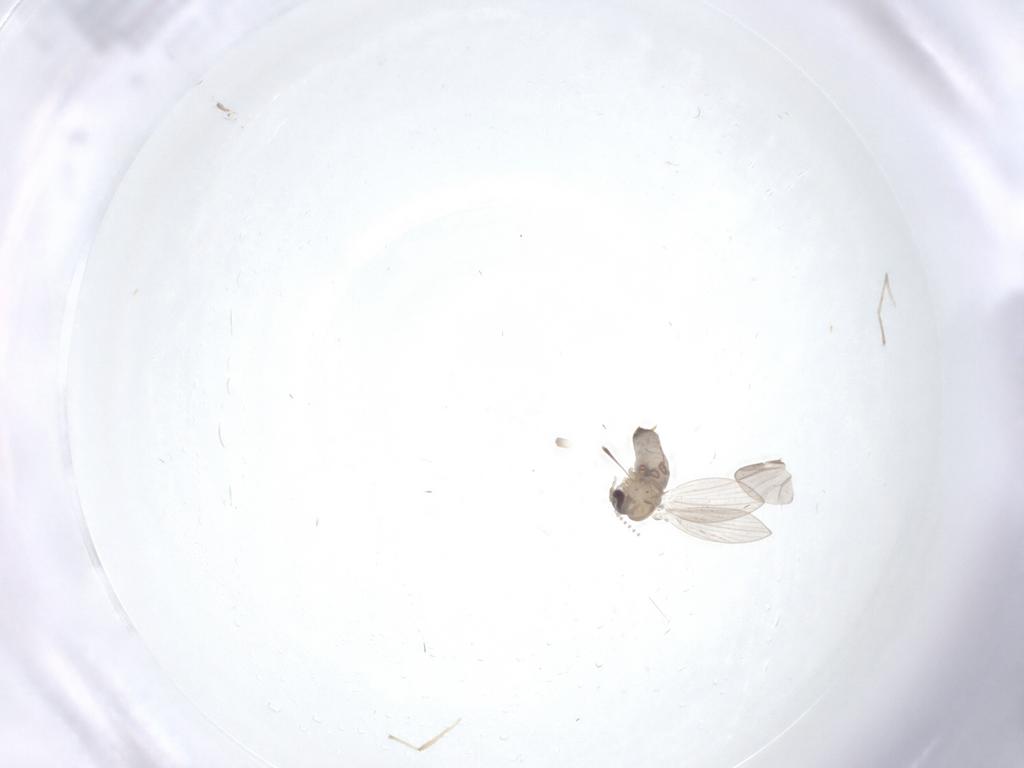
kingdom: Animalia
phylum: Arthropoda
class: Insecta
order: Diptera
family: Psychodidae
